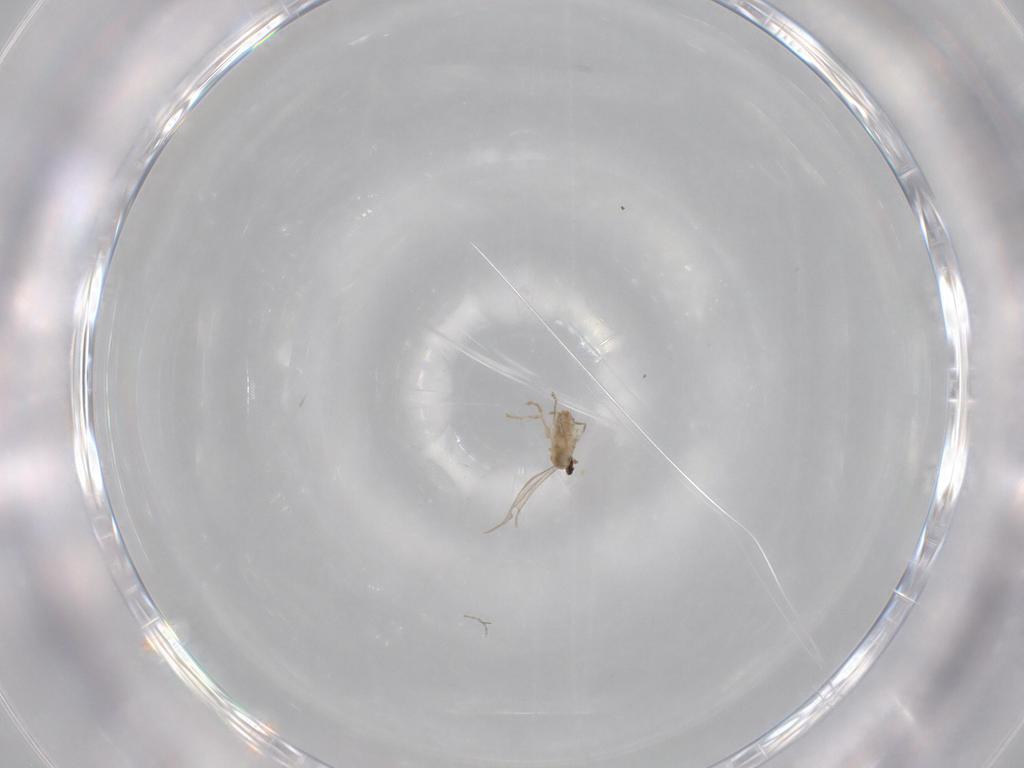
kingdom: Animalia
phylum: Arthropoda
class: Insecta
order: Diptera
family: Cecidomyiidae
